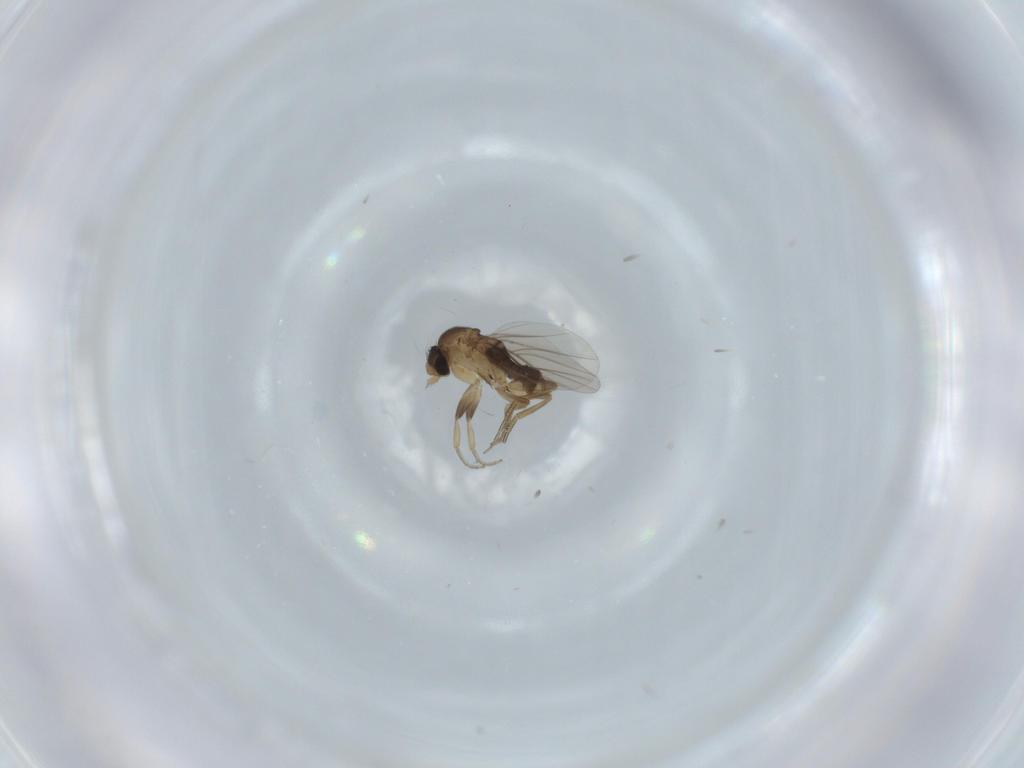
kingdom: Animalia
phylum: Arthropoda
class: Insecta
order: Diptera
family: Phoridae
